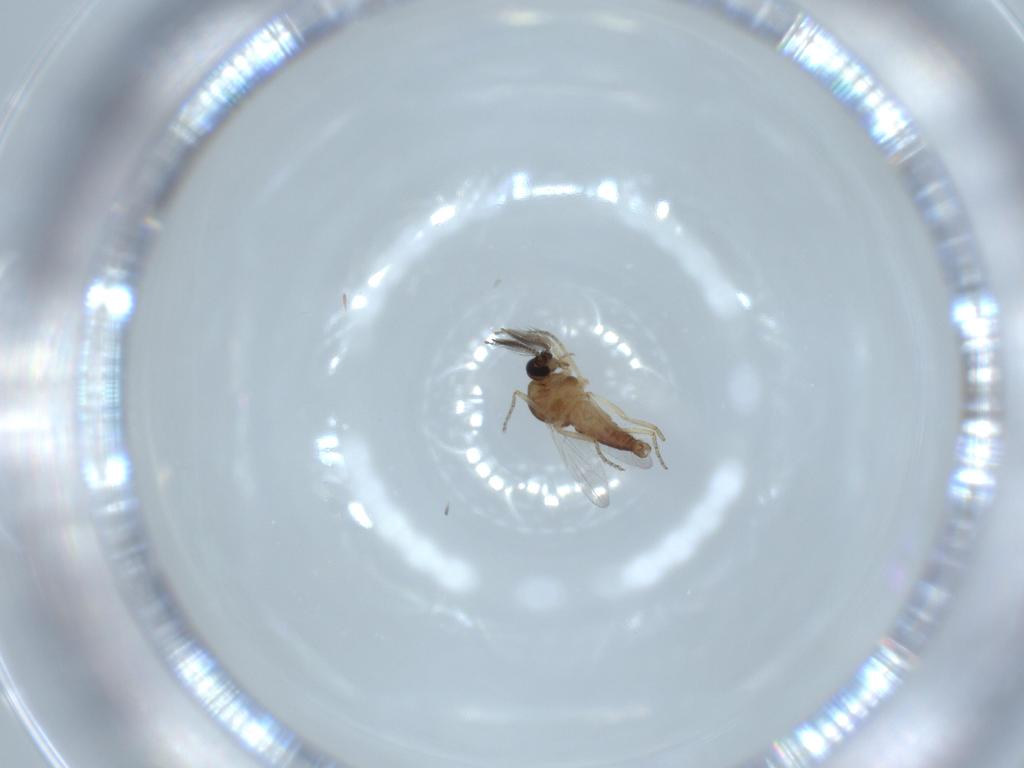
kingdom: Animalia
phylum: Arthropoda
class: Insecta
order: Diptera
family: Ceratopogonidae
